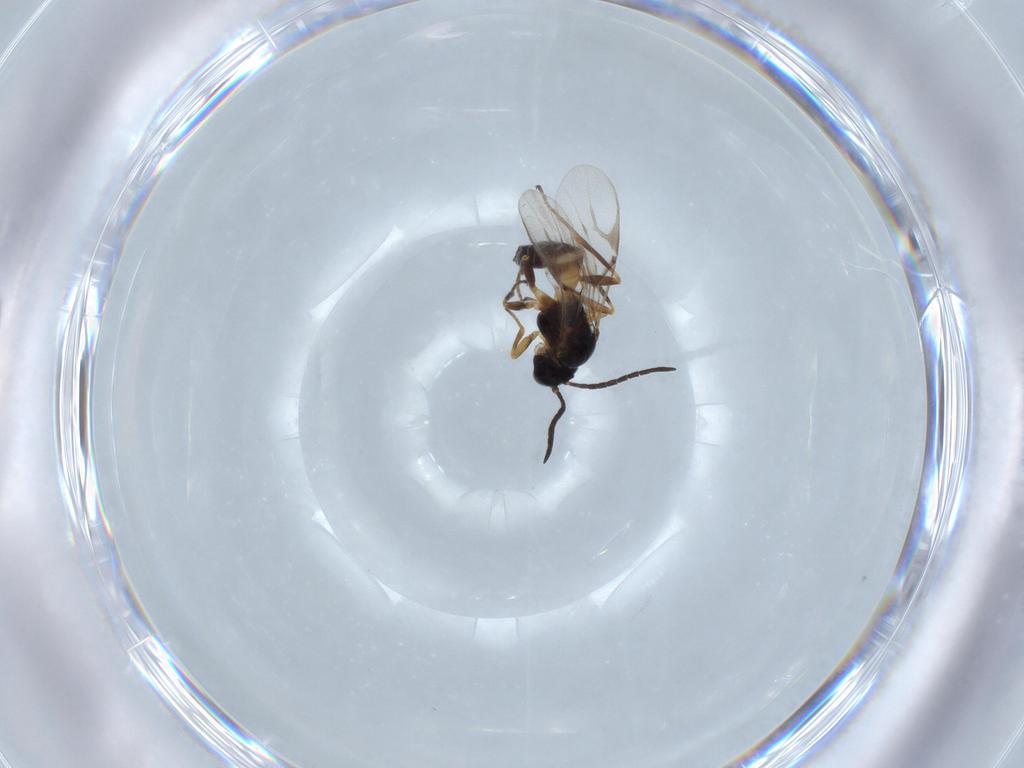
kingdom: Animalia
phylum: Arthropoda
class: Insecta
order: Hymenoptera
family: Braconidae
